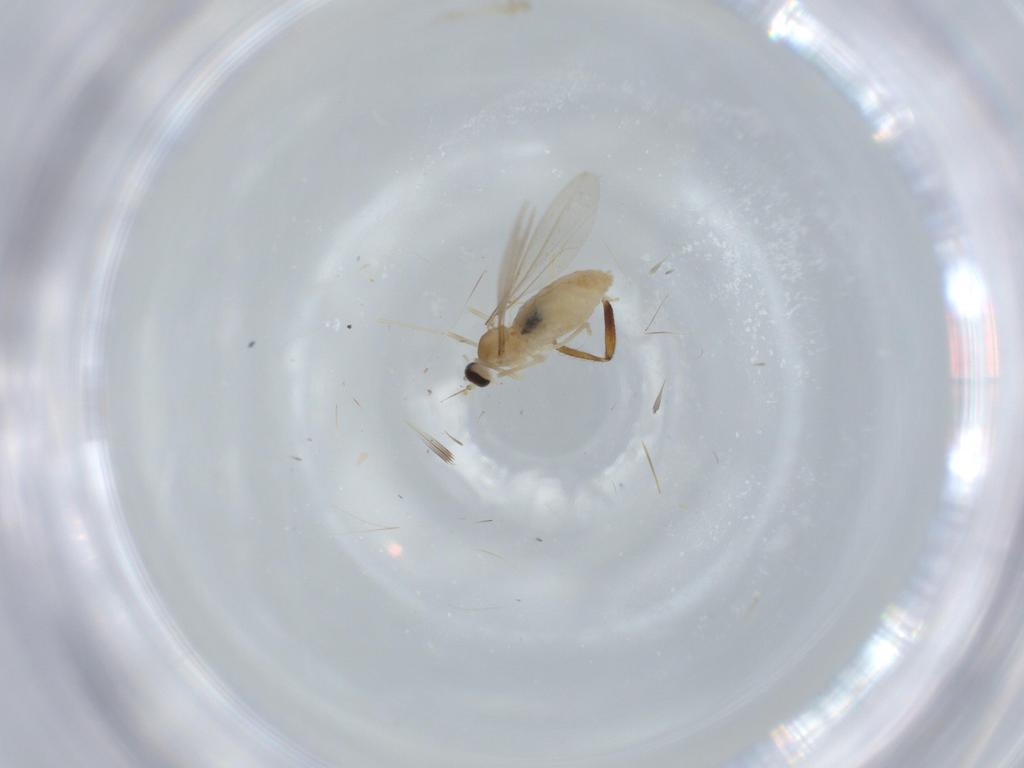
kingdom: Animalia
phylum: Arthropoda
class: Insecta
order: Diptera
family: Cecidomyiidae
